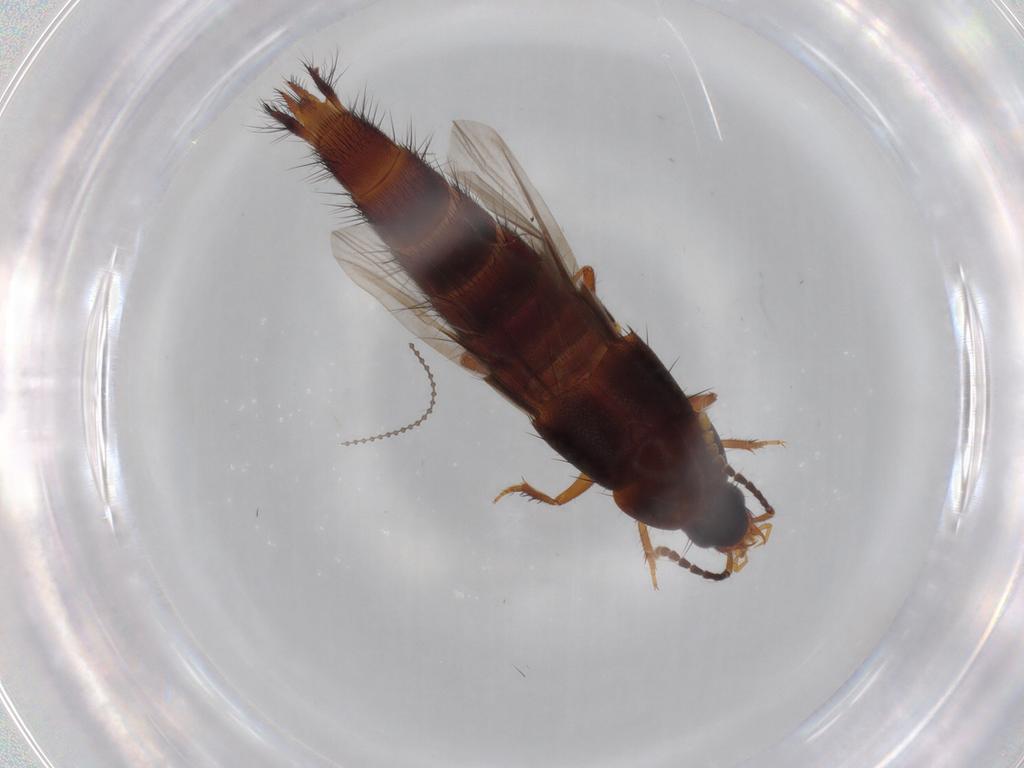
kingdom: Animalia
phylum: Arthropoda
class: Insecta
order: Coleoptera
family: Staphylinidae
